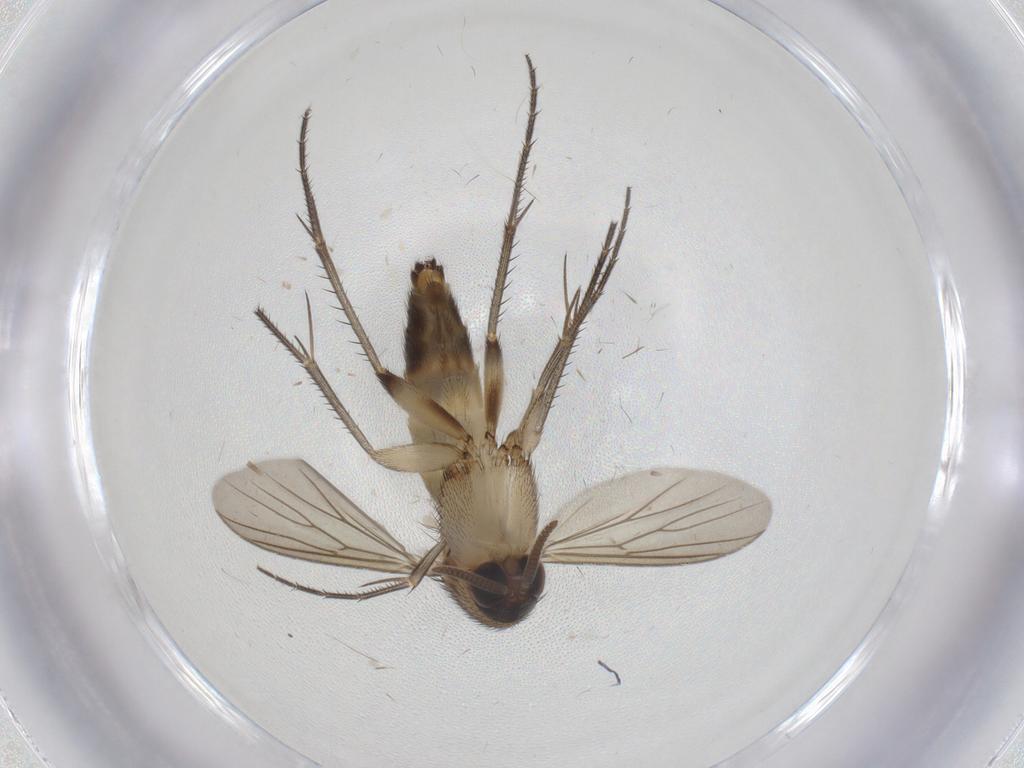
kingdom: Animalia
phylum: Arthropoda
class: Insecta
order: Diptera
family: Mycetophilidae
